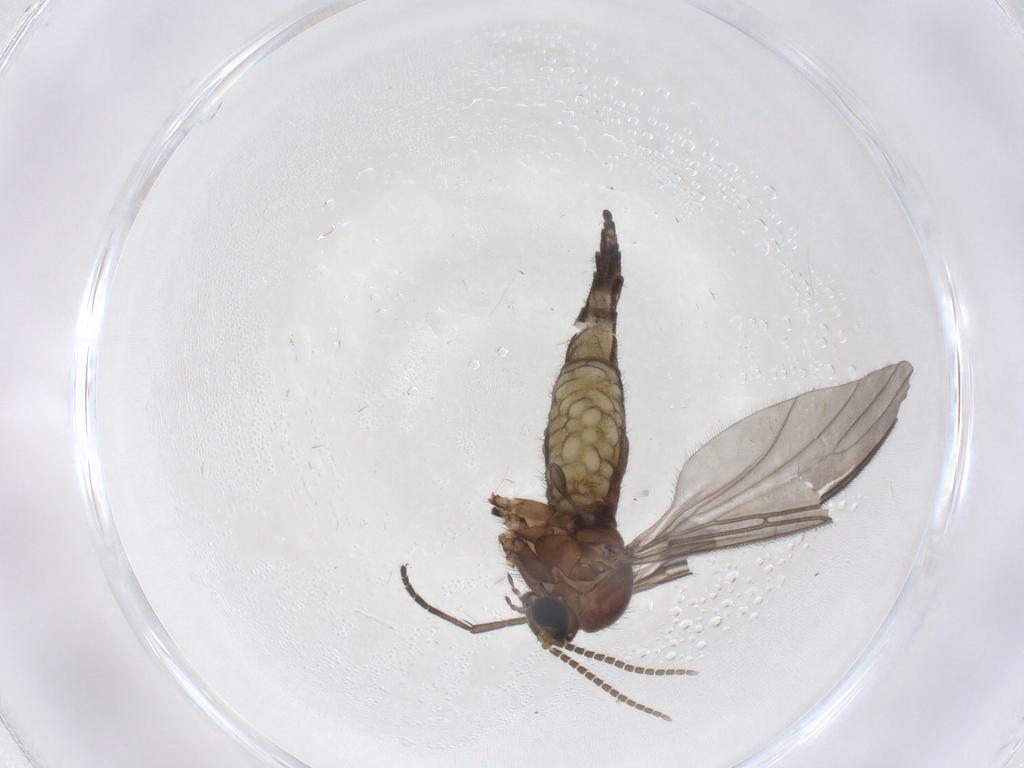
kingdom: Animalia
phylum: Arthropoda
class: Insecta
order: Diptera
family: Sciaridae
